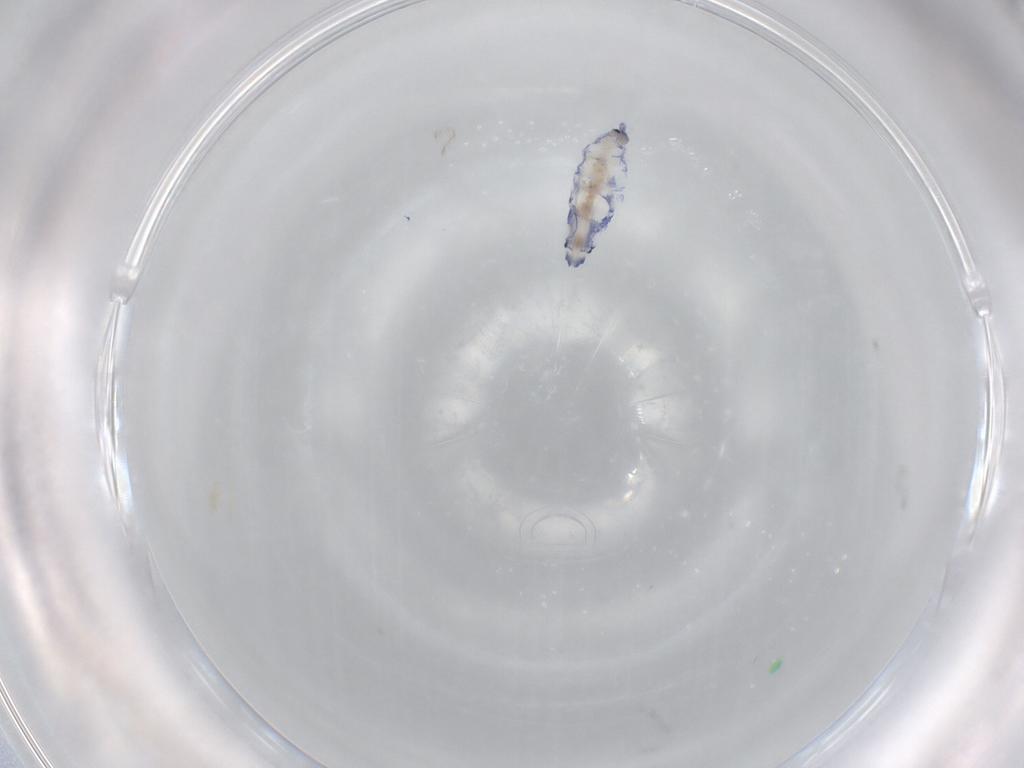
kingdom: Animalia
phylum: Arthropoda
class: Collembola
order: Entomobryomorpha
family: Entomobryidae
